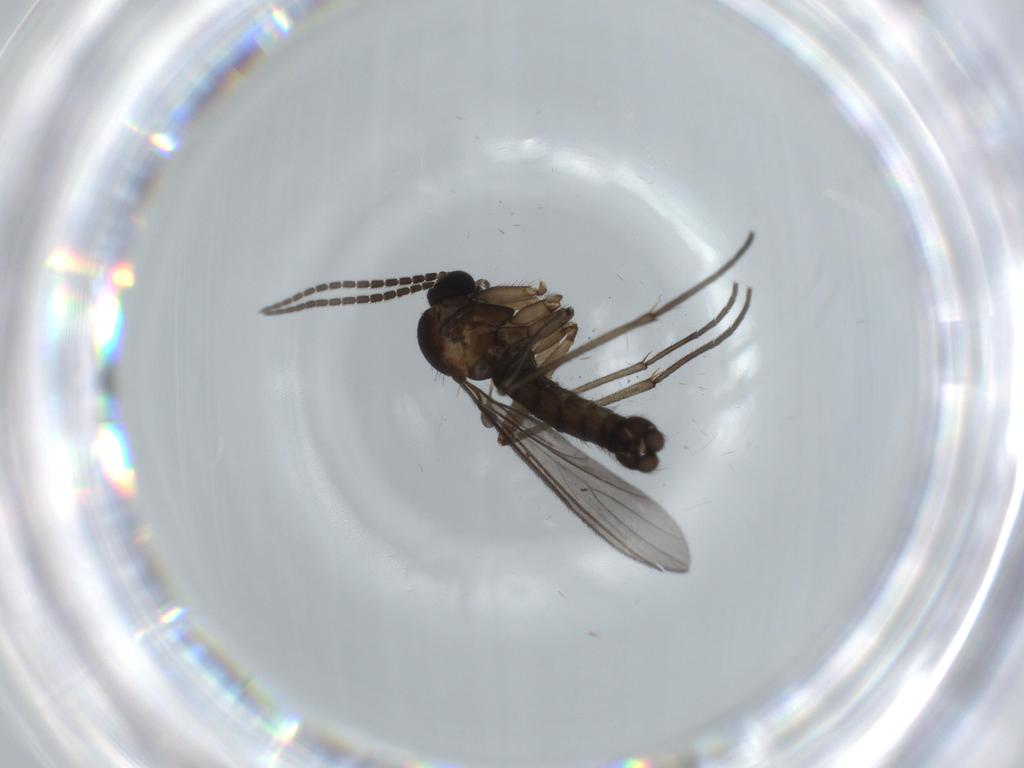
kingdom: Animalia
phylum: Arthropoda
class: Insecta
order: Diptera
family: Sciaridae
